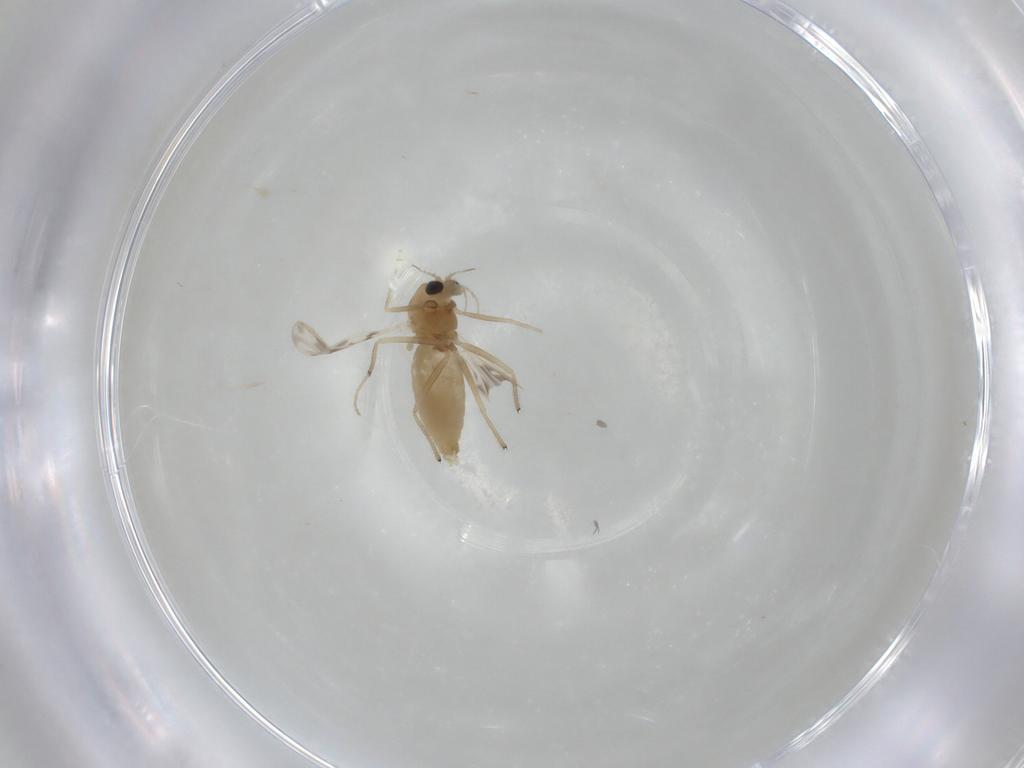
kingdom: Animalia
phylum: Arthropoda
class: Insecta
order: Diptera
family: Chironomidae
